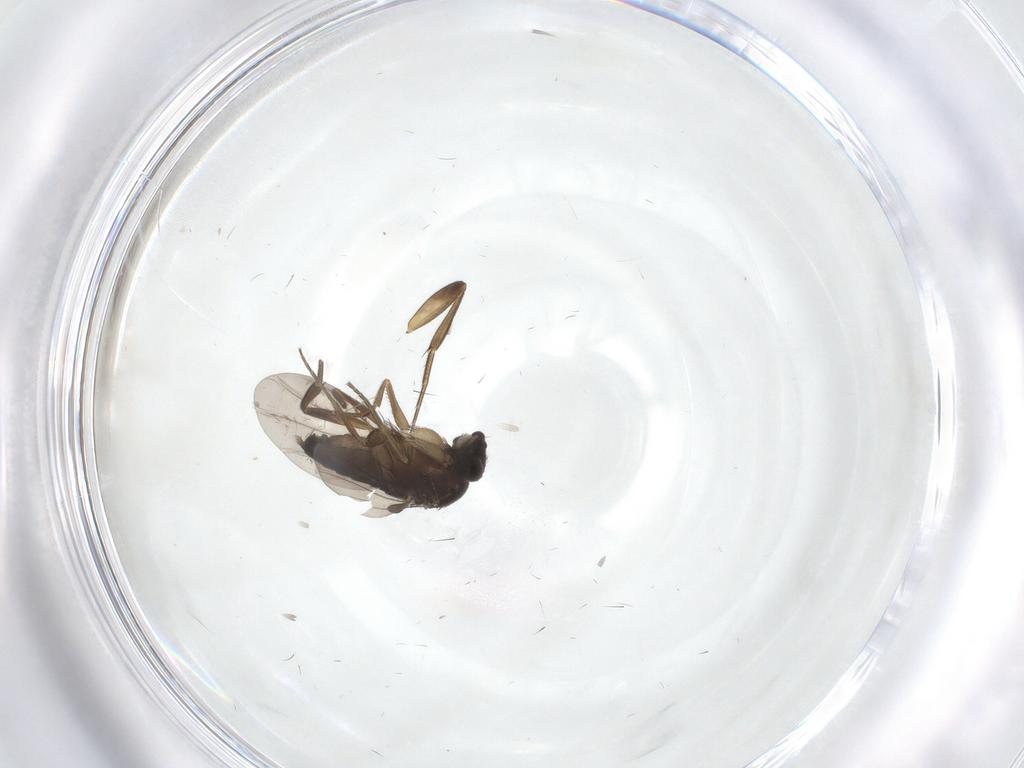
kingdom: Animalia
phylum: Arthropoda
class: Insecta
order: Diptera
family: Phoridae
